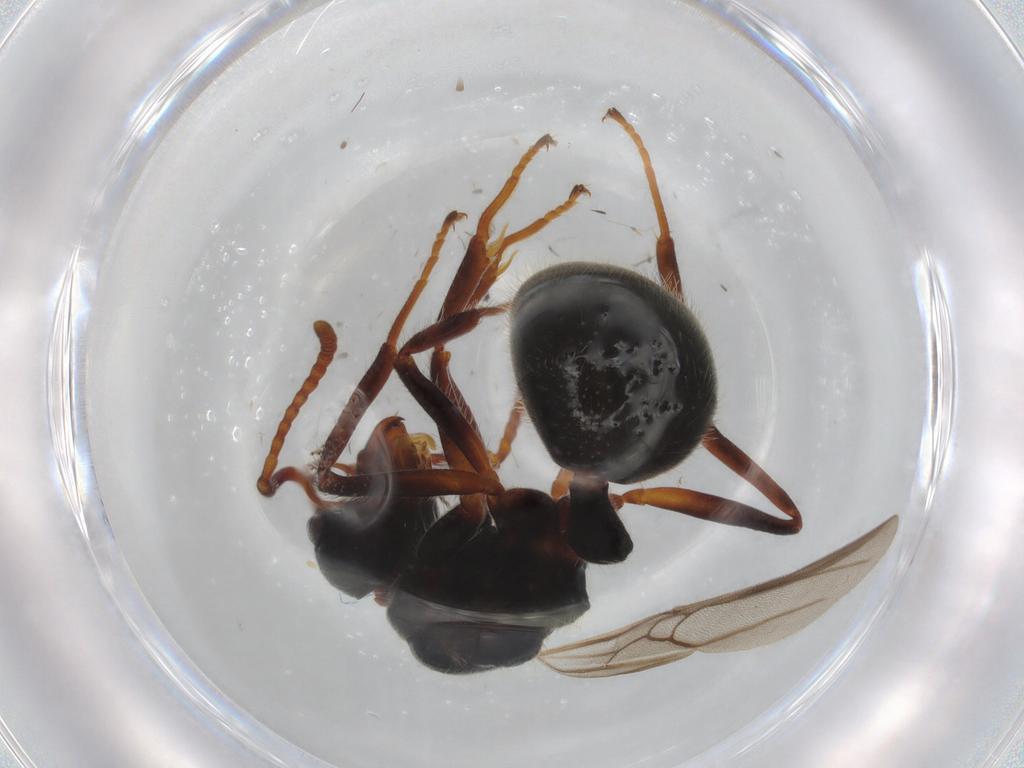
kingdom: Animalia
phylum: Arthropoda
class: Insecta
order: Hymenoptera
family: Formicidae
